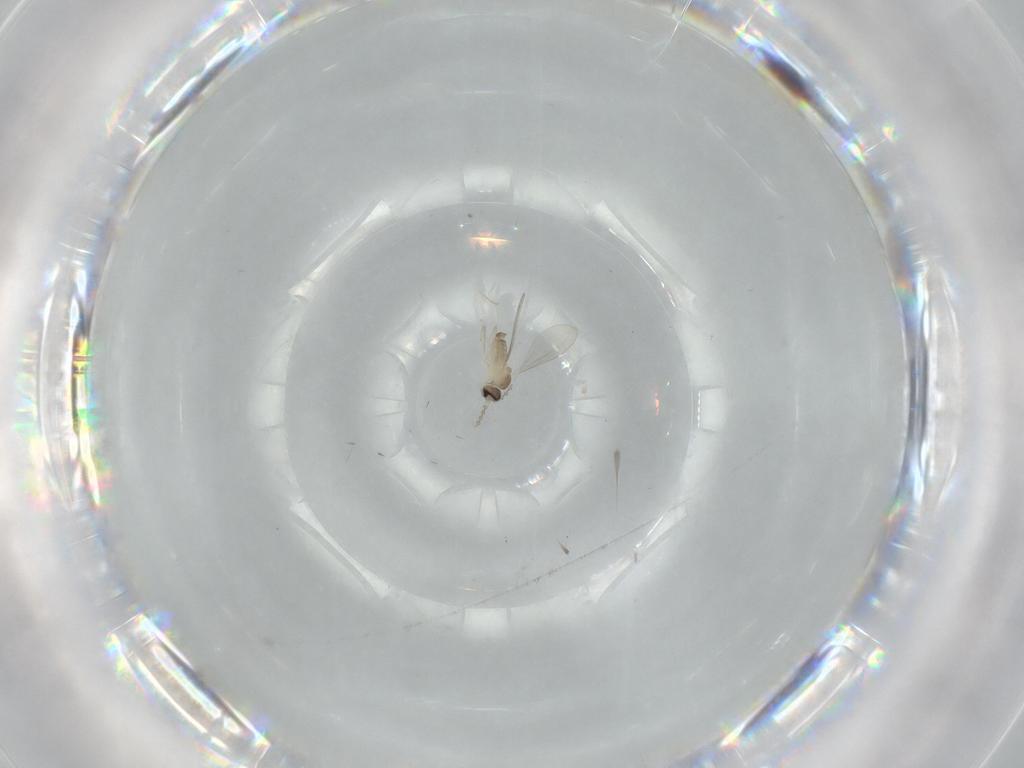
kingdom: Animalia
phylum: Arthropoda
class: Insecta
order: Diptera
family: Cecidomyiidae
